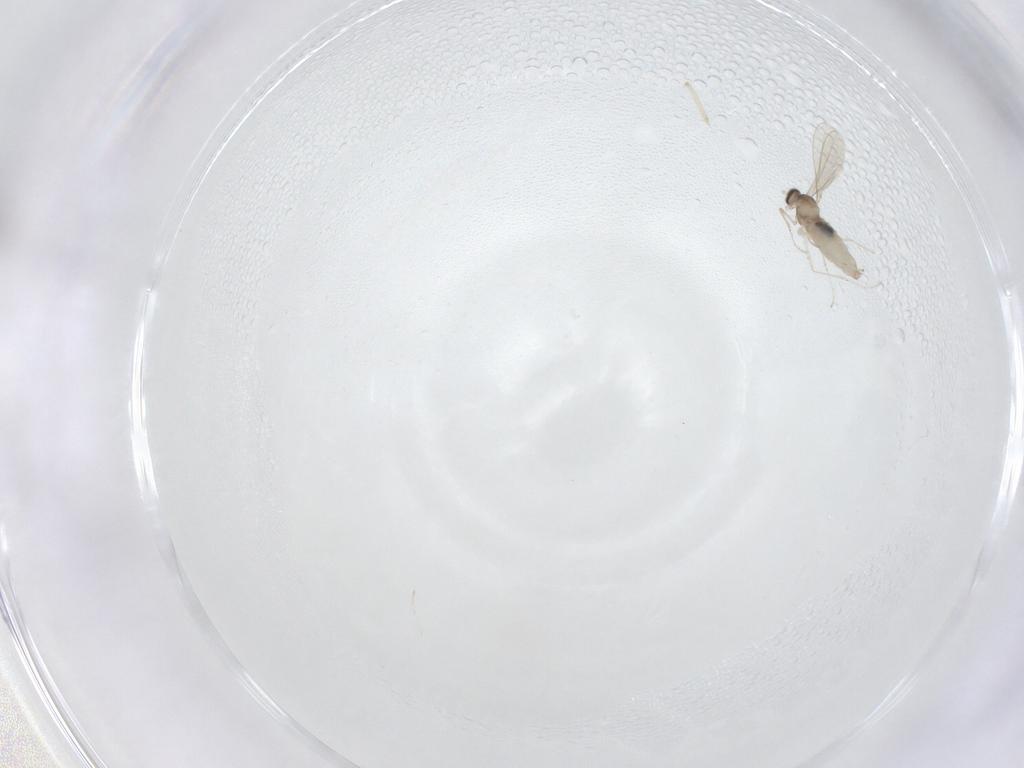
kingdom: Animalia
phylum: Arthropoda
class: Insecta
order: Diptera
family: Cecidomyiidae
